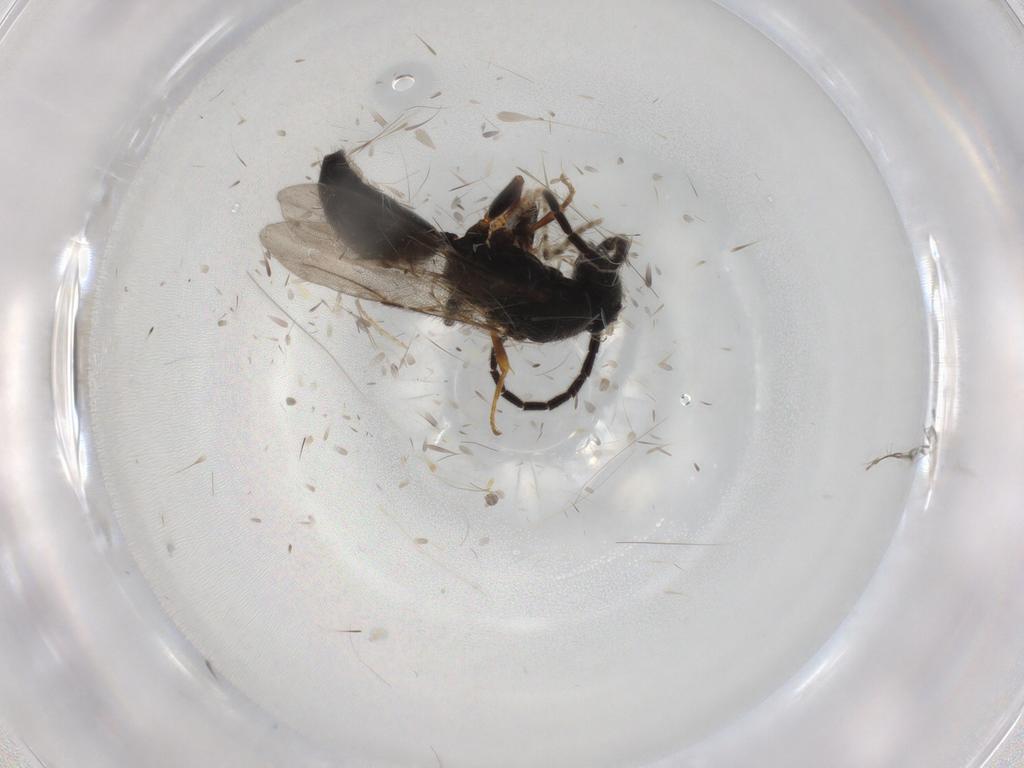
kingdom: Animalia
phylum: Arthropoda
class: Insecta
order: Hymenoptera
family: Bethylidae
